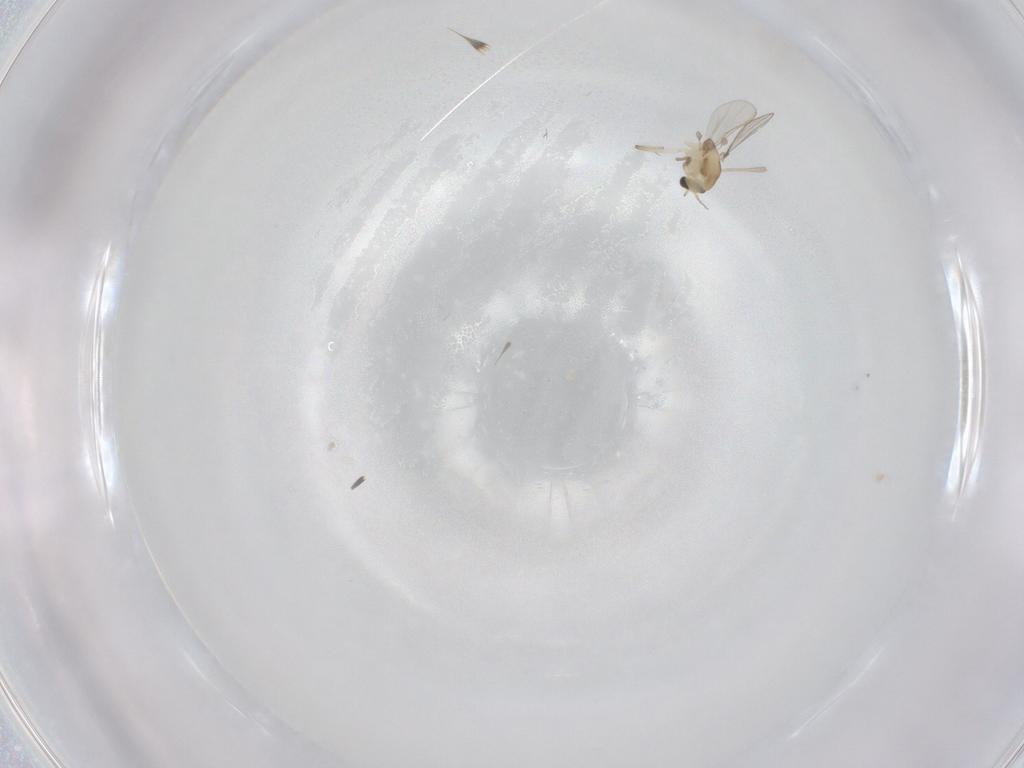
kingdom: Animalia
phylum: Arthropoda
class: Insecta
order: Diptera
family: Chironomidae
